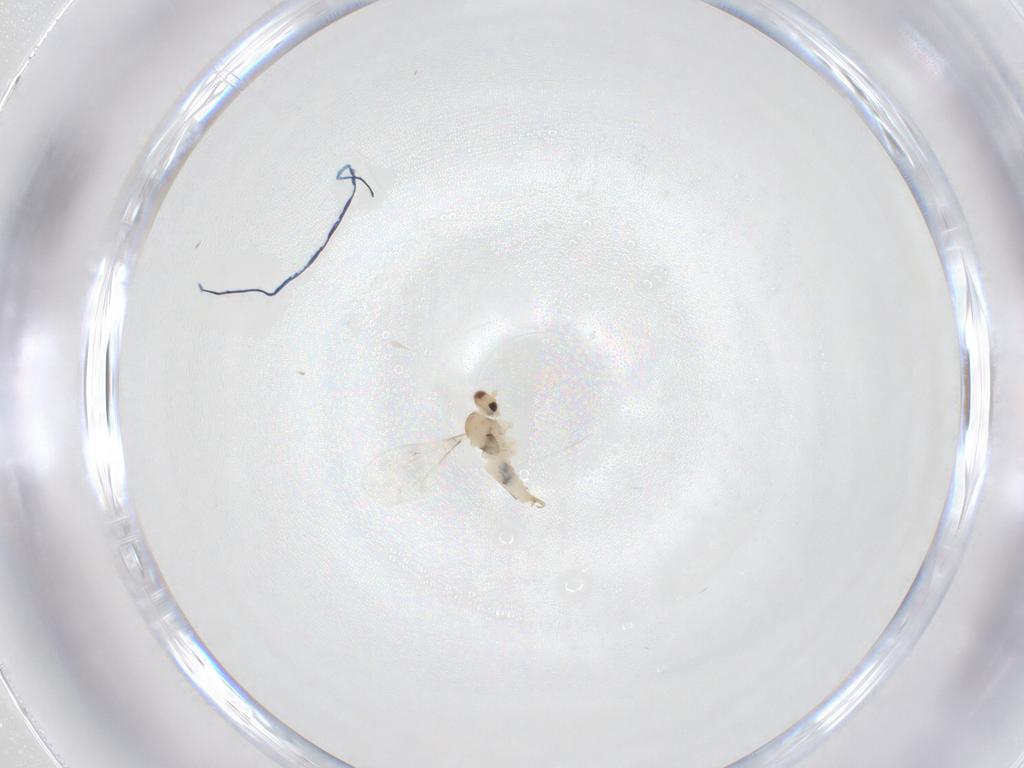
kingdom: Animalia
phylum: Arthropoda
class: Insecta
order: Diptera
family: Cecidomyiidae
